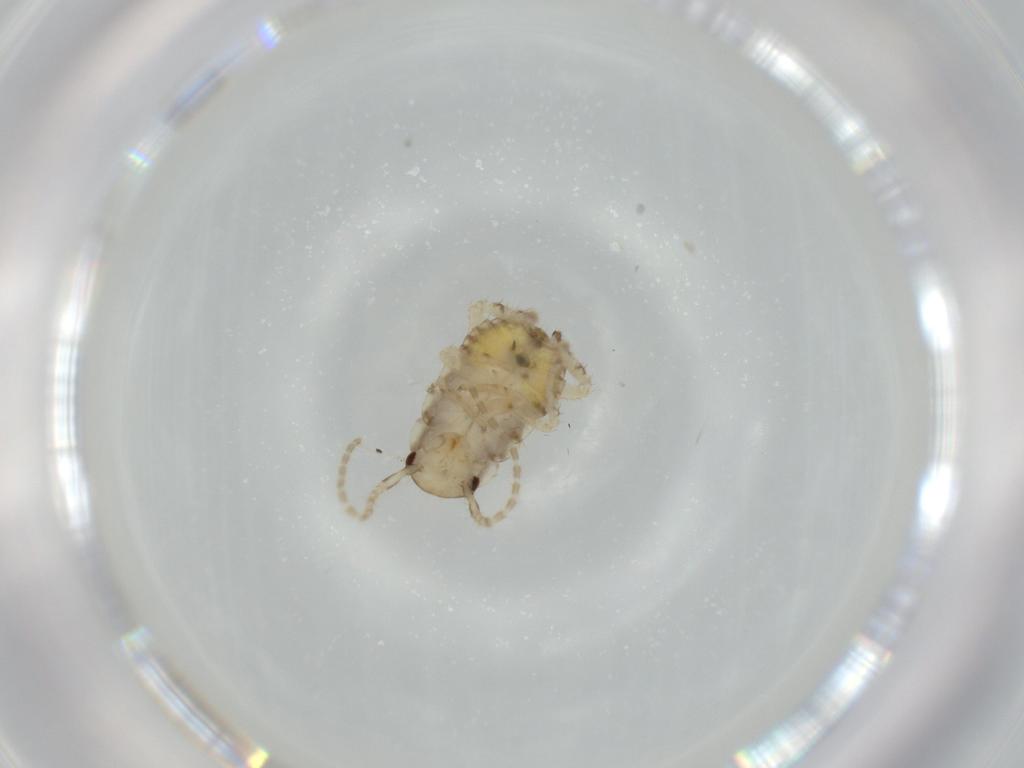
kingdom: Animalia
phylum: Arthropoda
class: Insecta
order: Blattodea
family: Ectobiidae
